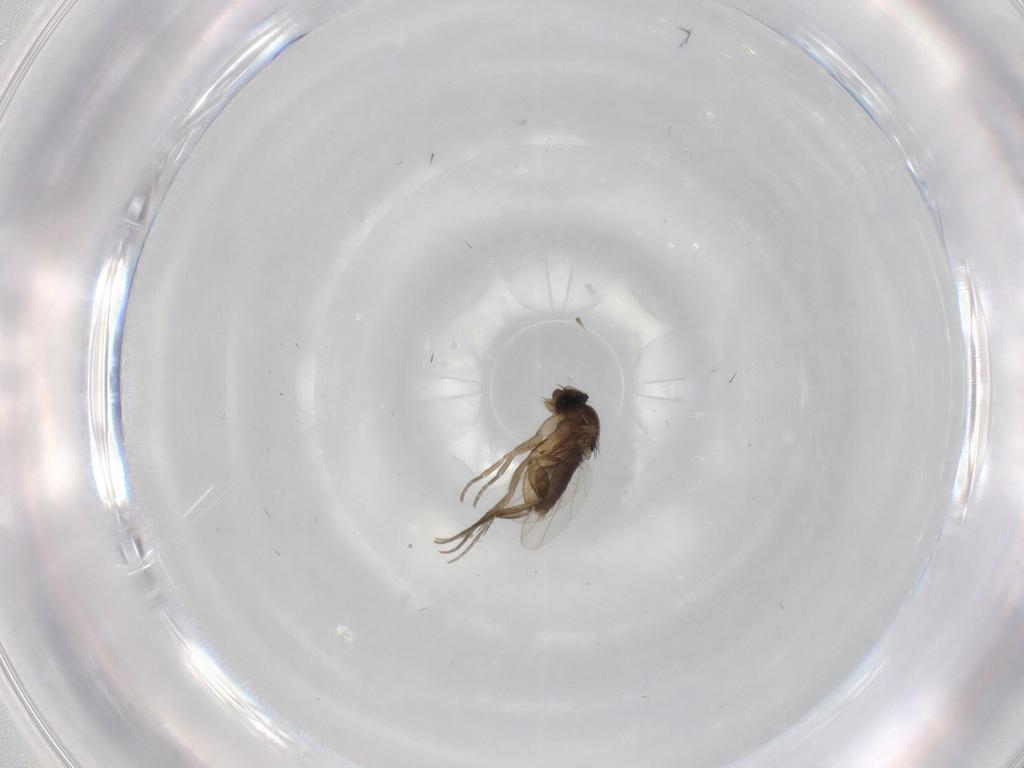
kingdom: Animalia
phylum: Arthropoda
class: Insecta
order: Diptera
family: Phoridae
